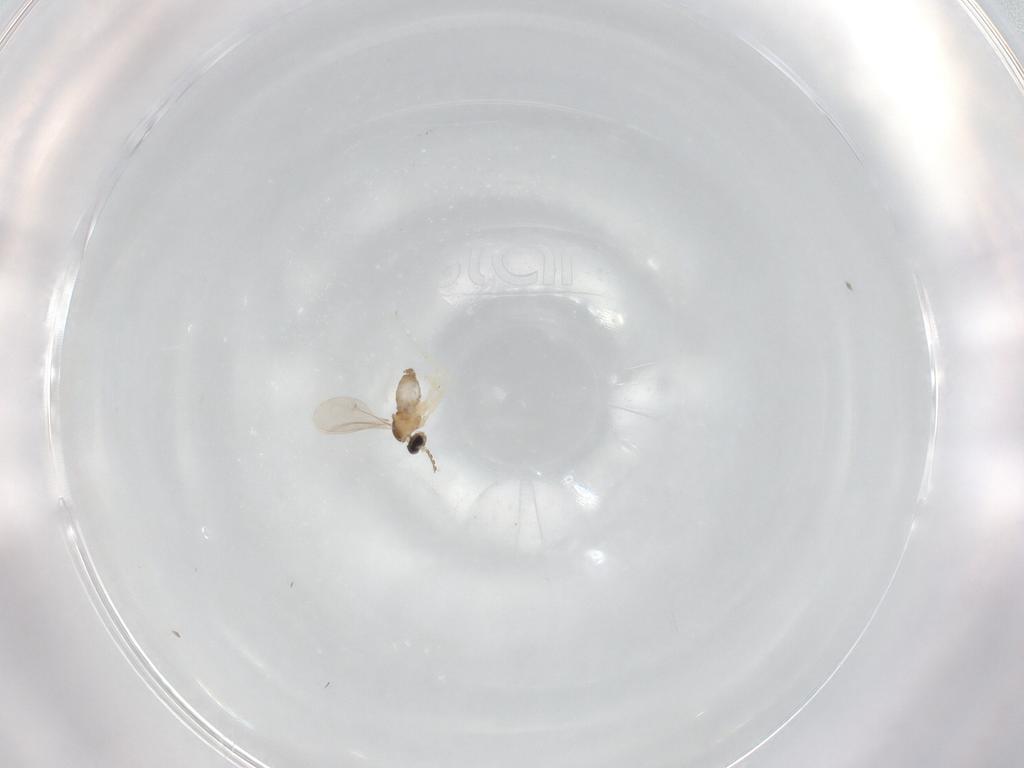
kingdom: Animalia
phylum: Arthropoda
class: Insecta
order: Diptera
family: Cecidomyiidae
